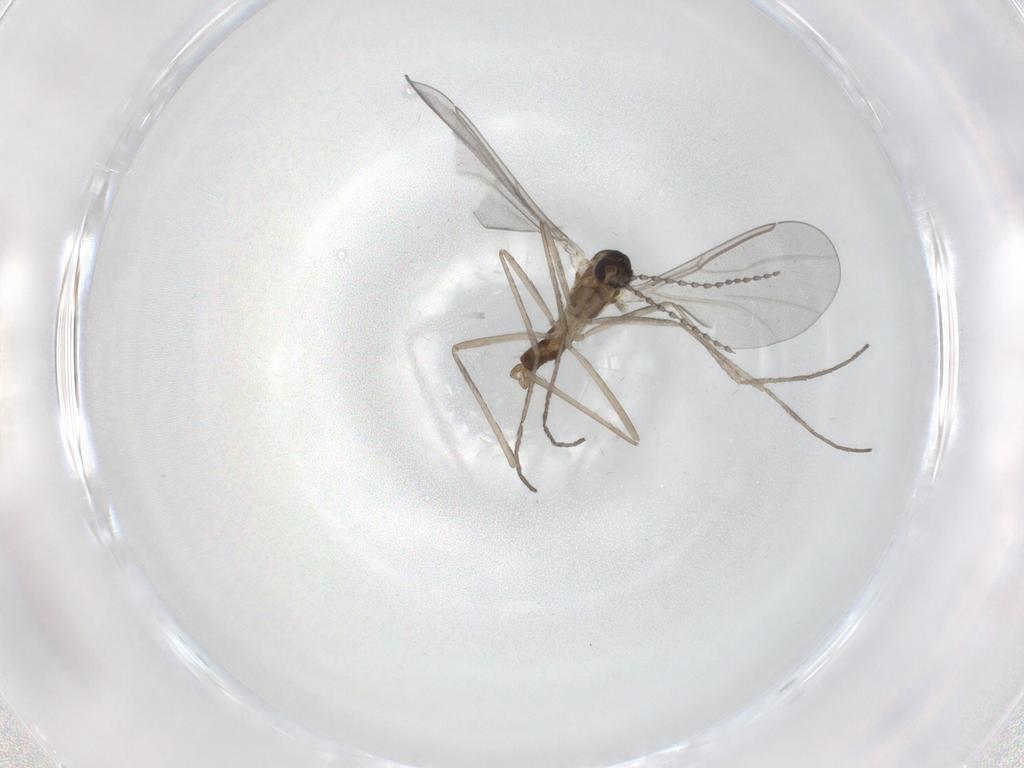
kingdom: Animalia
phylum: Arthropoda
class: Insecta
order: Diptera
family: Cecidomyiidae
